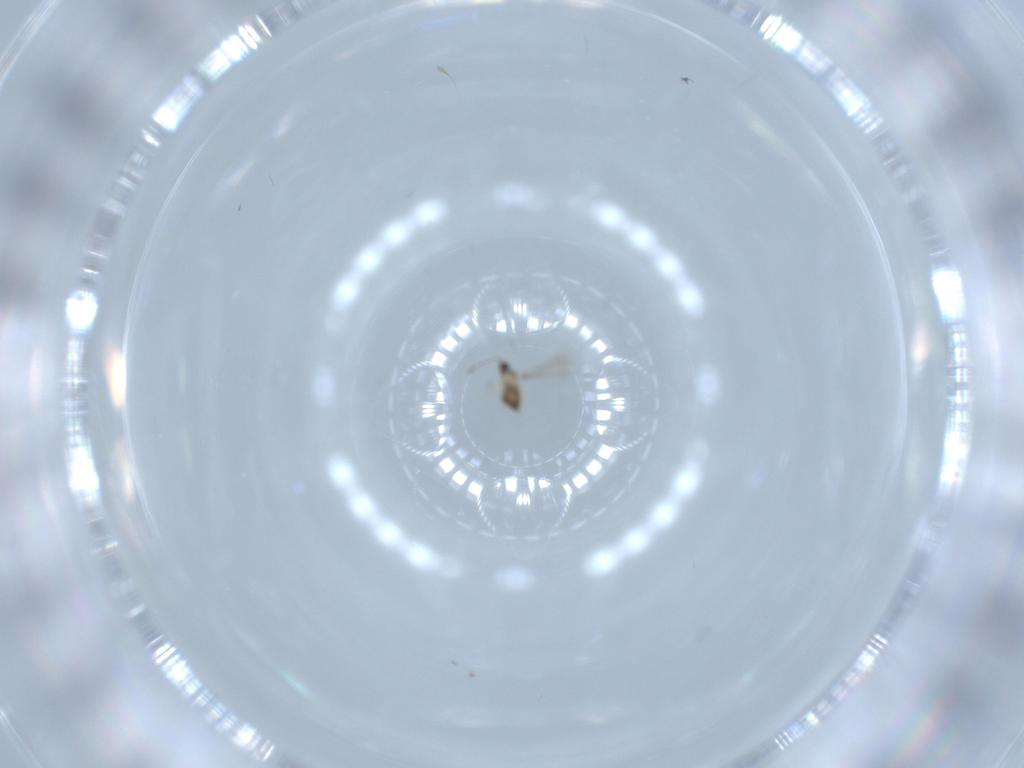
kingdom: Animalia
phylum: Arthropoda
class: Insecta
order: Hymenoptera
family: Mymaridae
